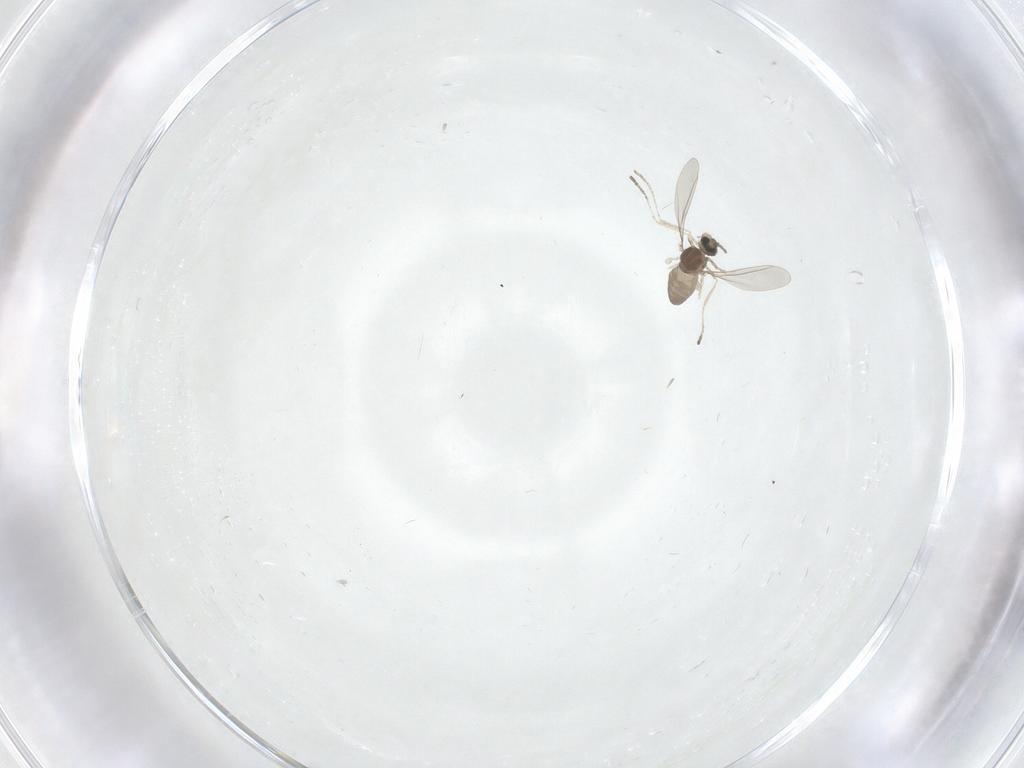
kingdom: Animalia
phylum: Arthropoda
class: Insecta
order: Diptera
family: Cecidomyiidae
